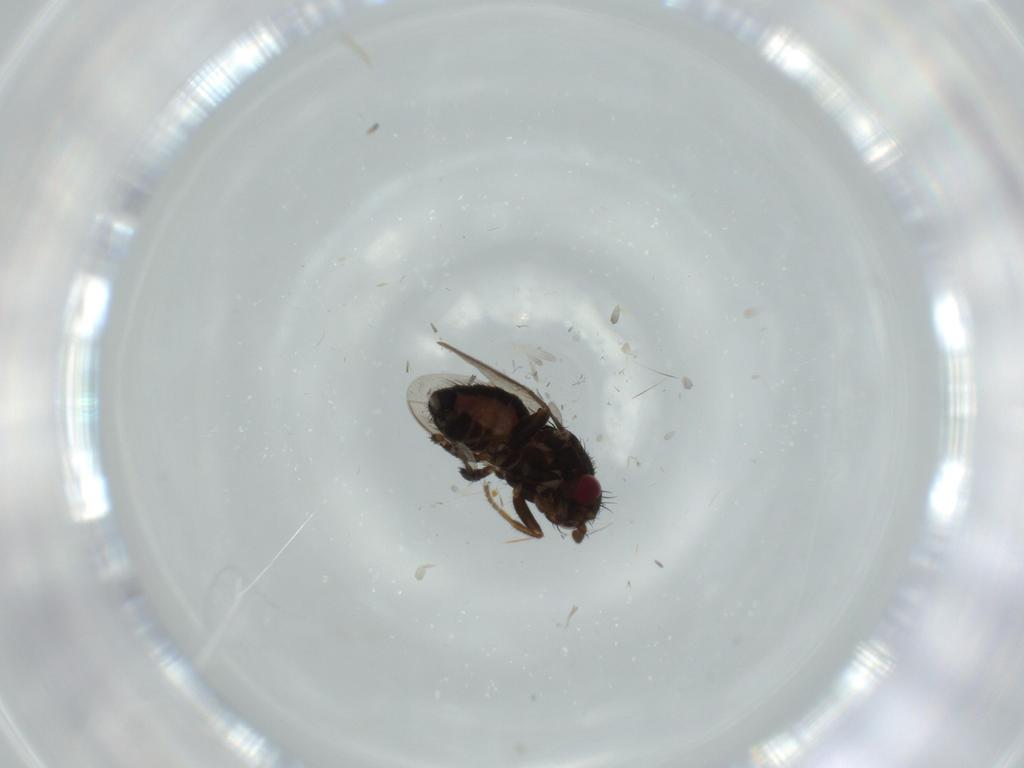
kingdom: Animalia
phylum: Arthropoda
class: Insecta
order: Diptera
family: Sphaeroceridae
